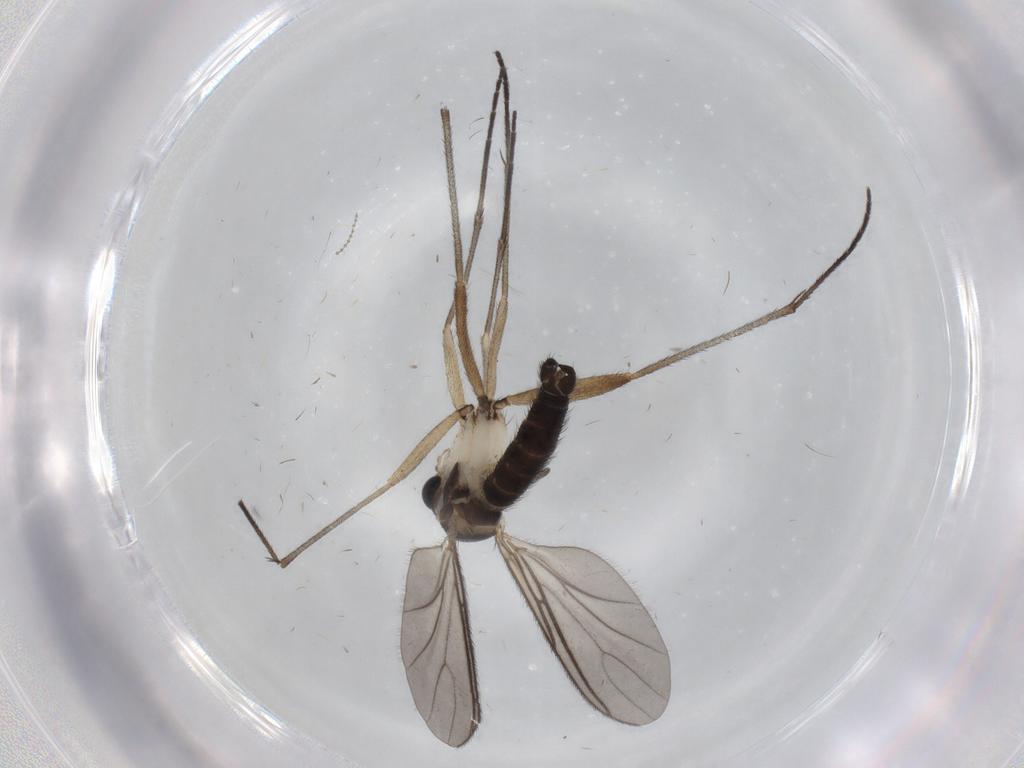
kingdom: Animalia
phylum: Arthropoda
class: Insecta
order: Diptera
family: Sciaridae
